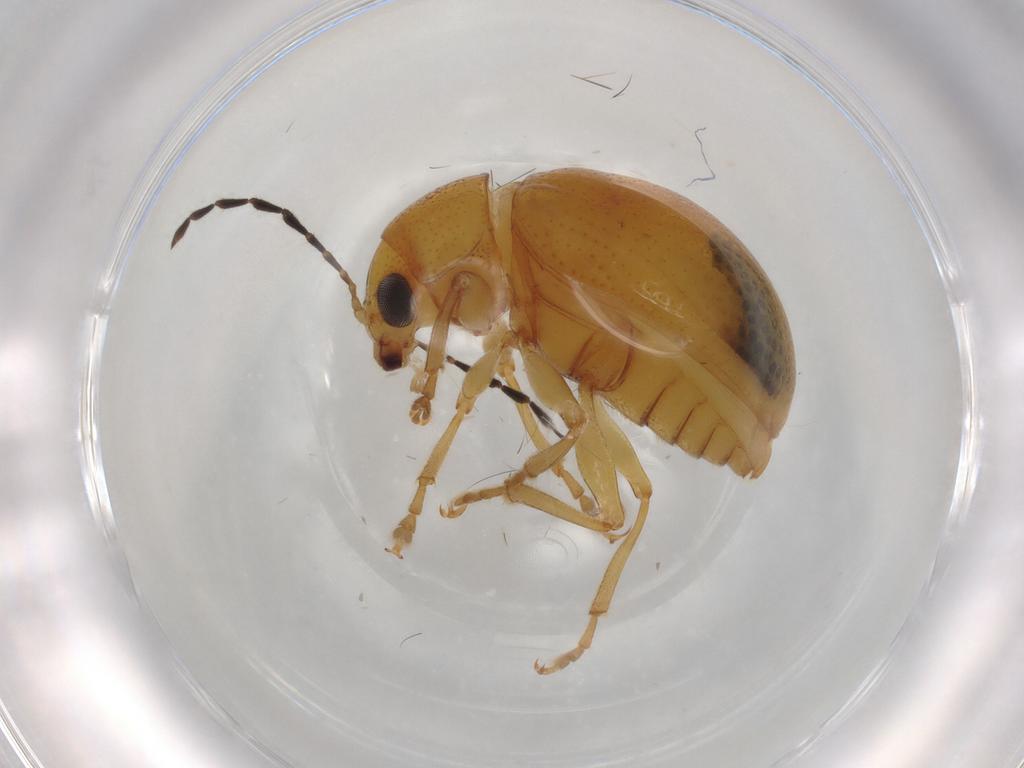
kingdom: Animalia
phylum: Arthropoda
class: Insecta
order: Coleoptera
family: Chrysomelidae
